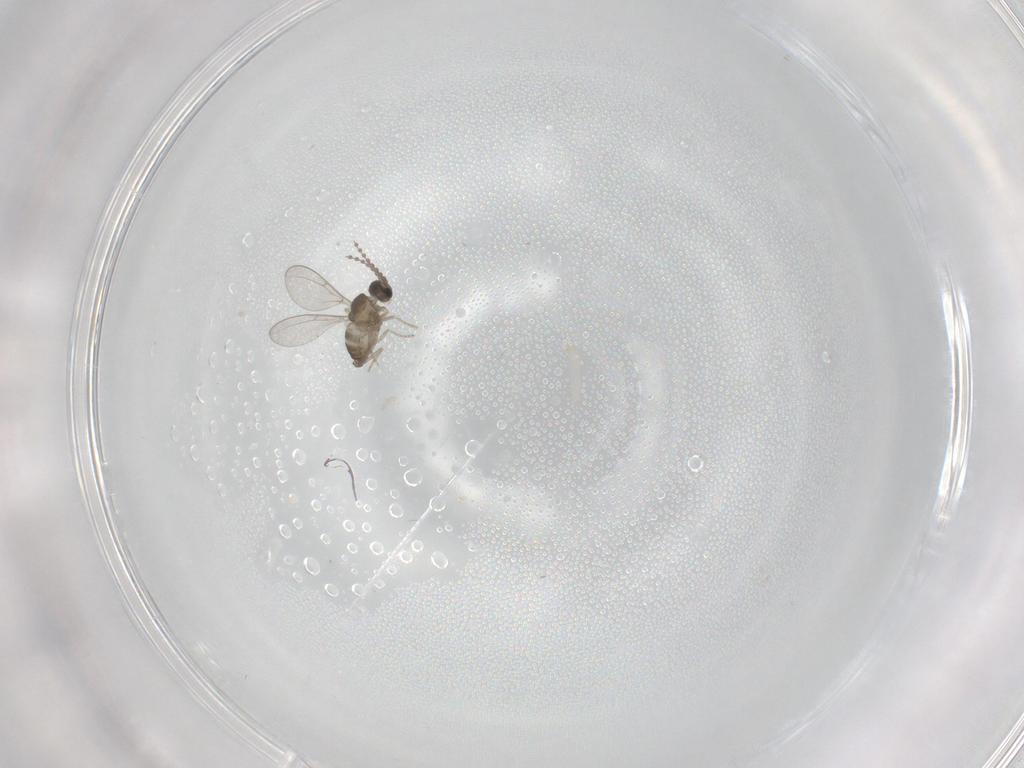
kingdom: Animalia
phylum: Arthropoda
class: Insecta
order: Diptera
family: Cecidomyiidae
